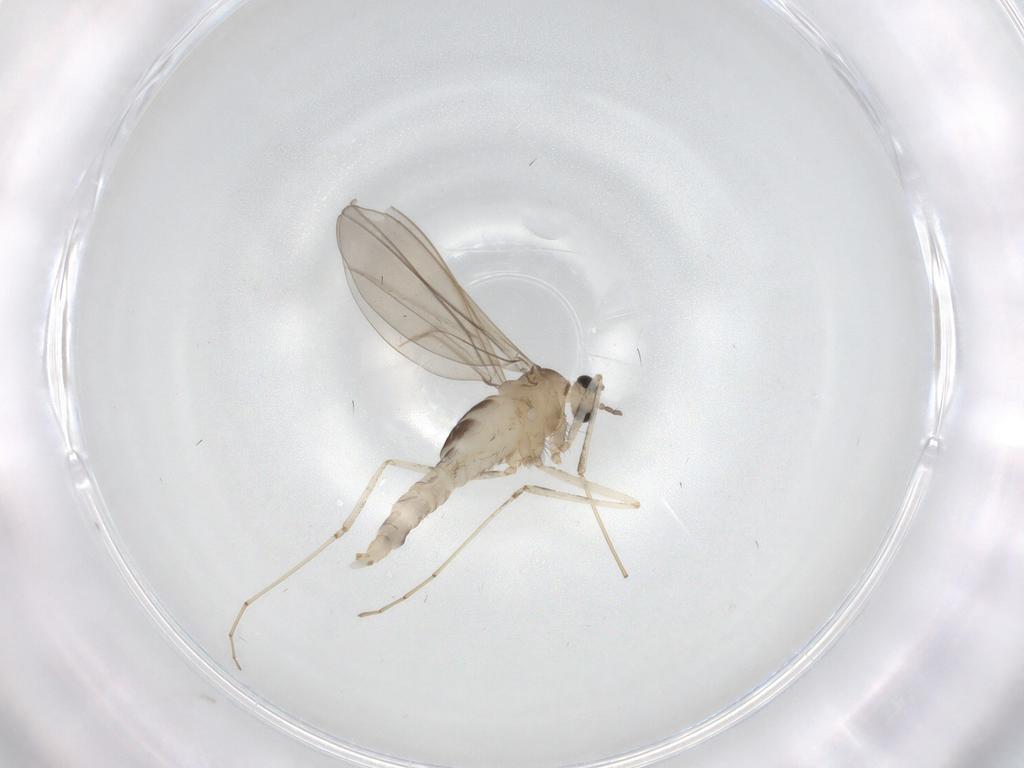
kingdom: Animalia
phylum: Arthropoda
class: Insecta
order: Diptera
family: Cecidomyiidae
